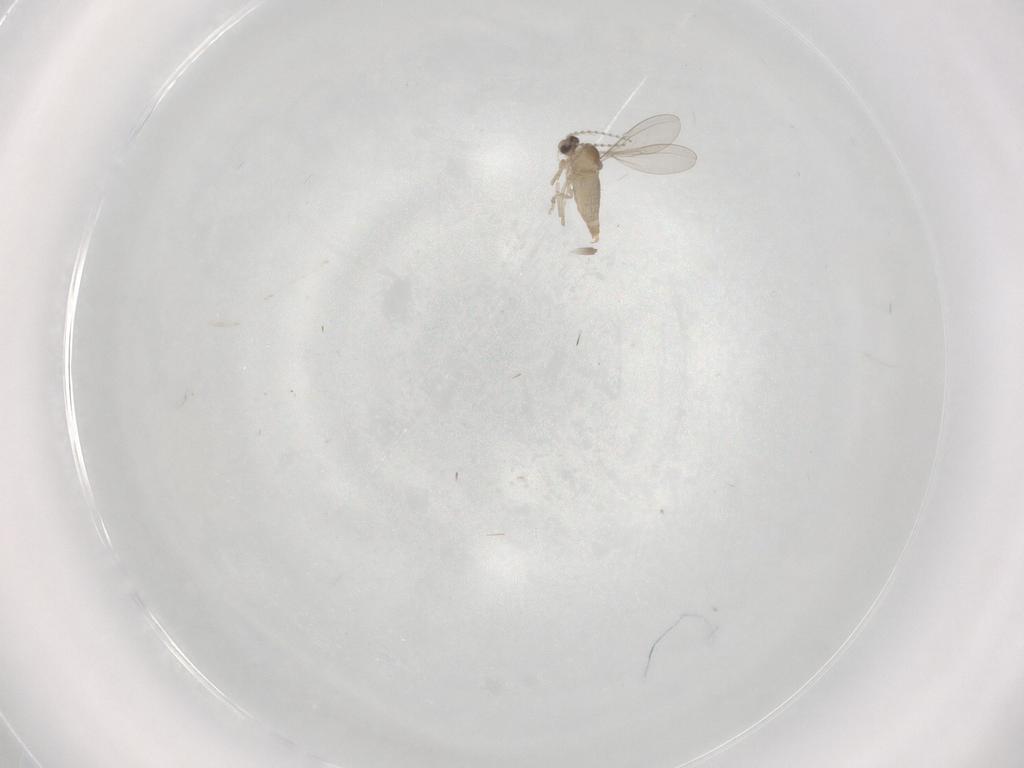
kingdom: Animalia
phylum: Arthropoda
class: Insecta
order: Diptera
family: Cecidomyiidae
